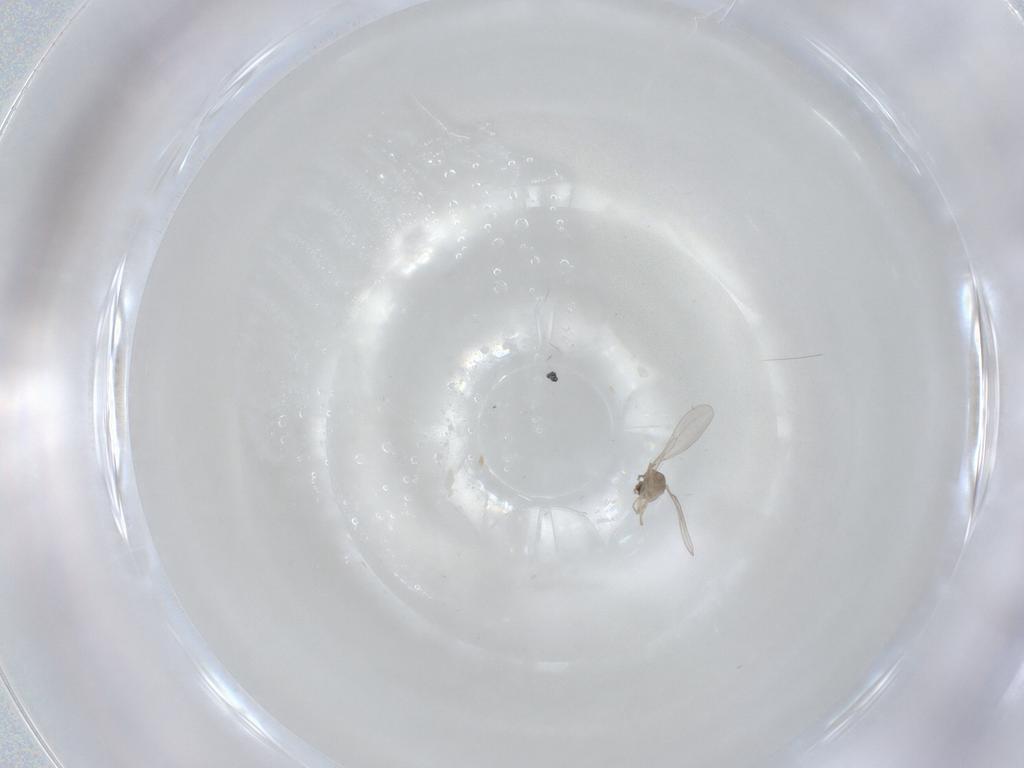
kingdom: Animalia
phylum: Arthropoda
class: Insecta
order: Diptera
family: Cecidomyiidae
